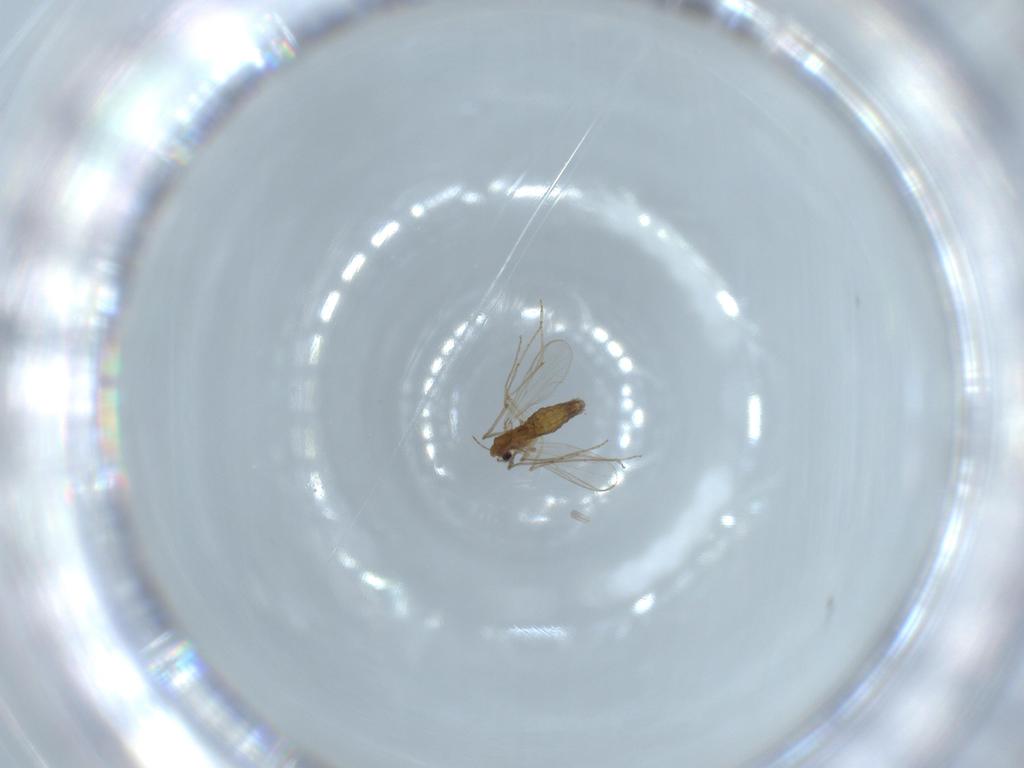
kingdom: Animalia
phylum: Arthropoda
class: Insecta
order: Diptera
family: Chironomidae
